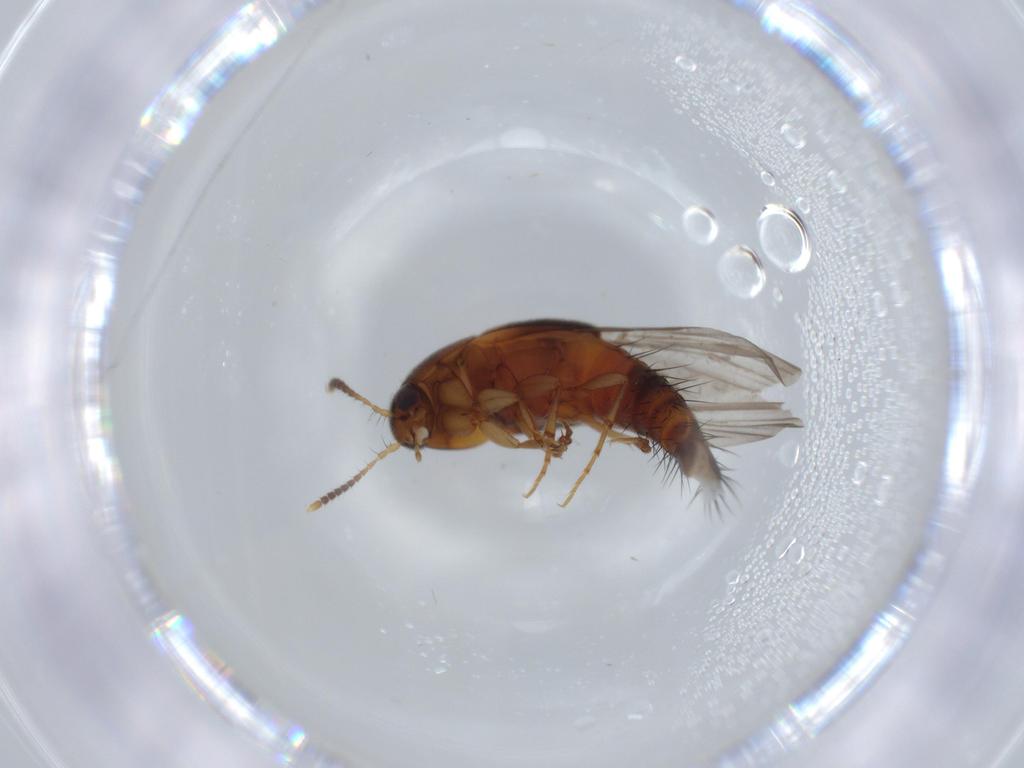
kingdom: Animalia
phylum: Arthropoda
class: Insecta
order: Coleoptera
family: Staphylinidae
